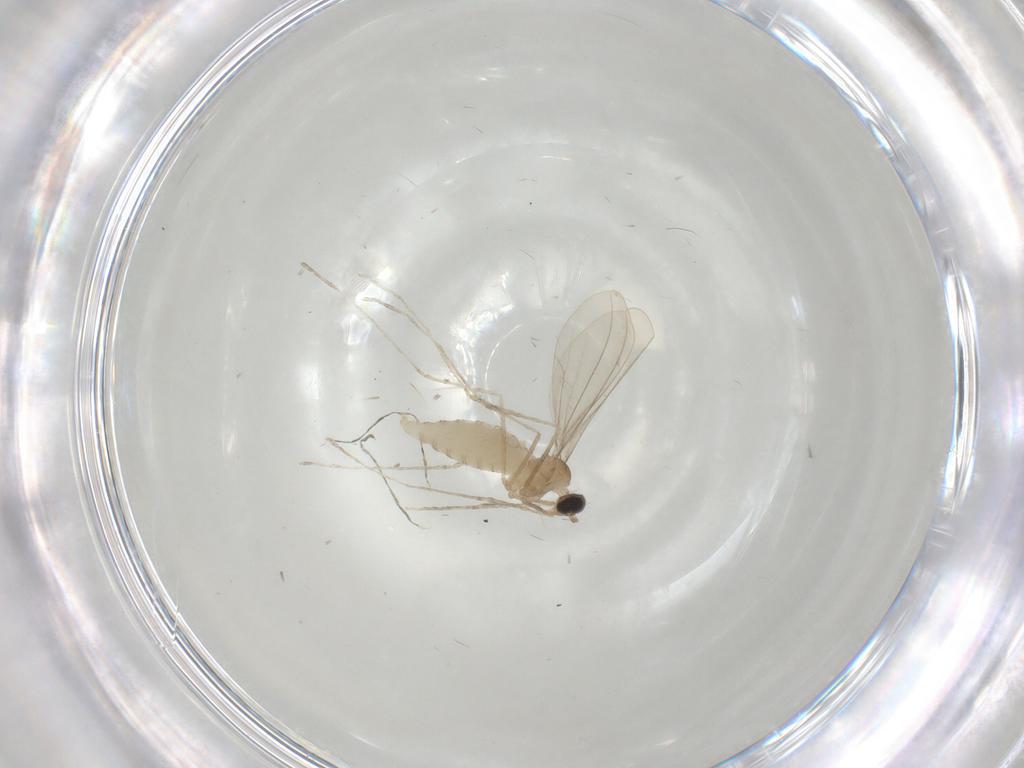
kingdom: Animalia
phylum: Arthropoda
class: Insecta
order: Diptera
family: Cecidomyiidae
